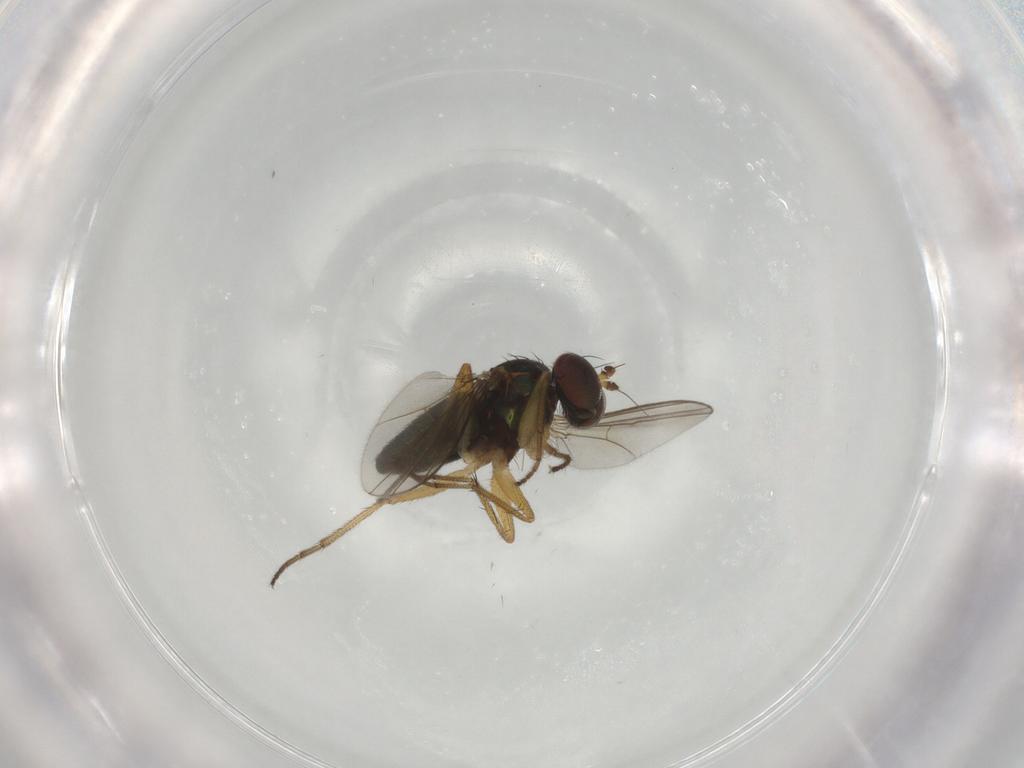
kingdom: Animalia
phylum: Arthropoda
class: Insecta
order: Diptera
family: Dolichopodidae
